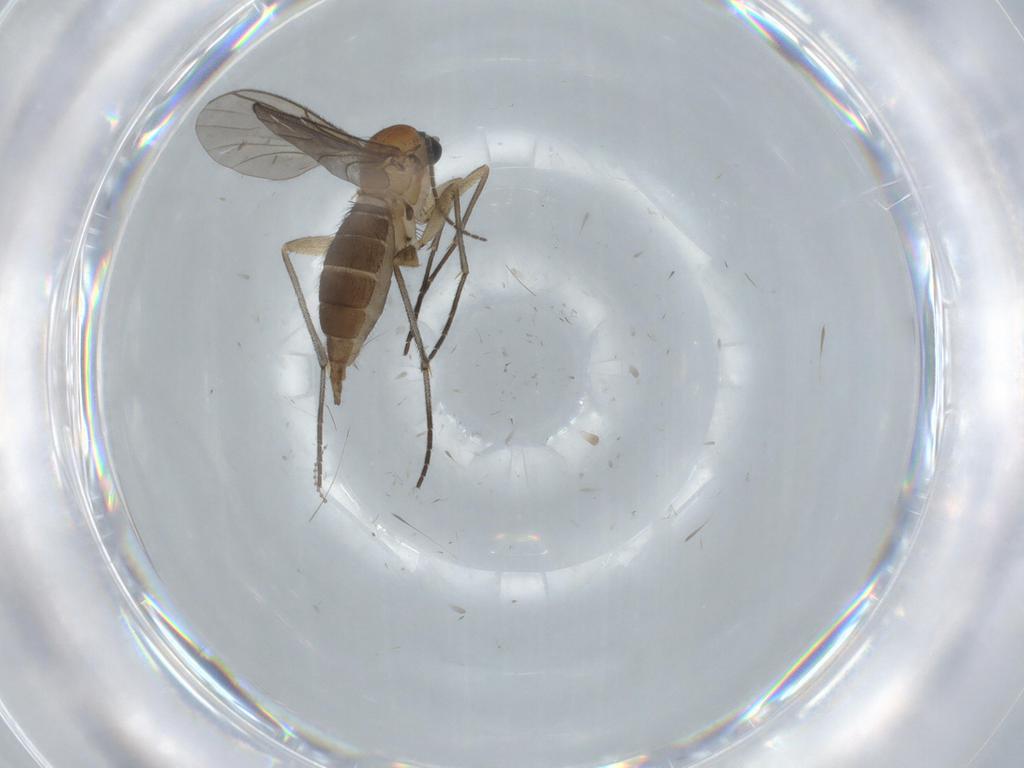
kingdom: Animalia
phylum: Arthropoda
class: Insecta
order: Diptera
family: Sciaridae
